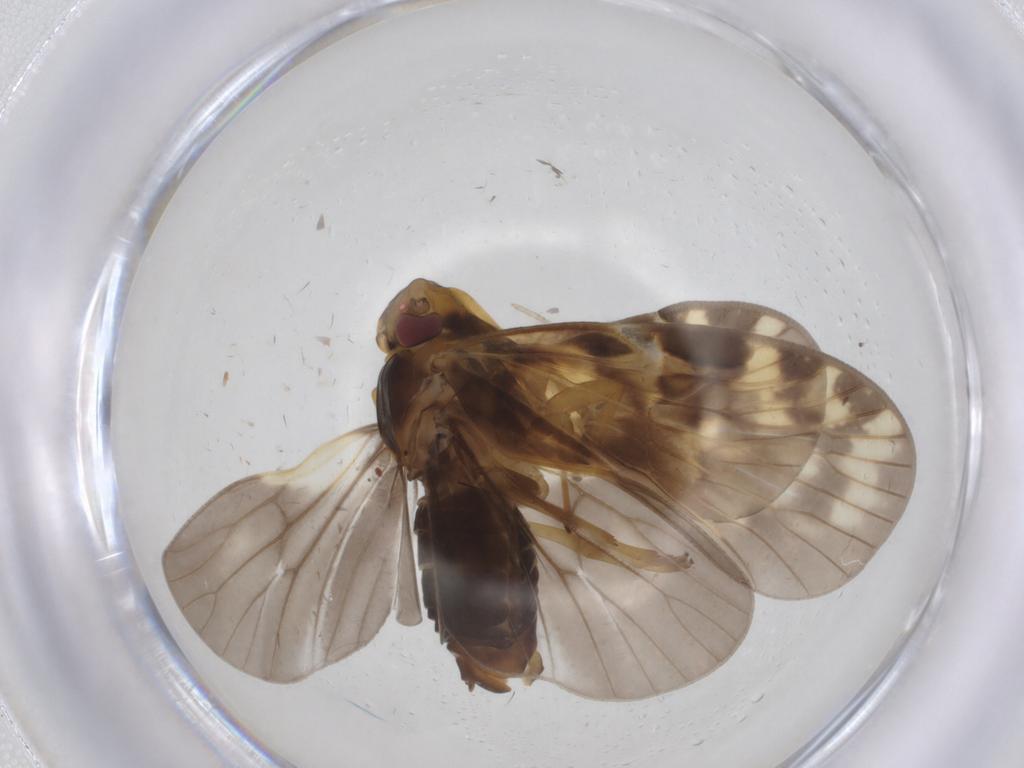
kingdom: Animalia
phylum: Arthropoda
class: Insecta
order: Hemiptera
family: Cixiidae
